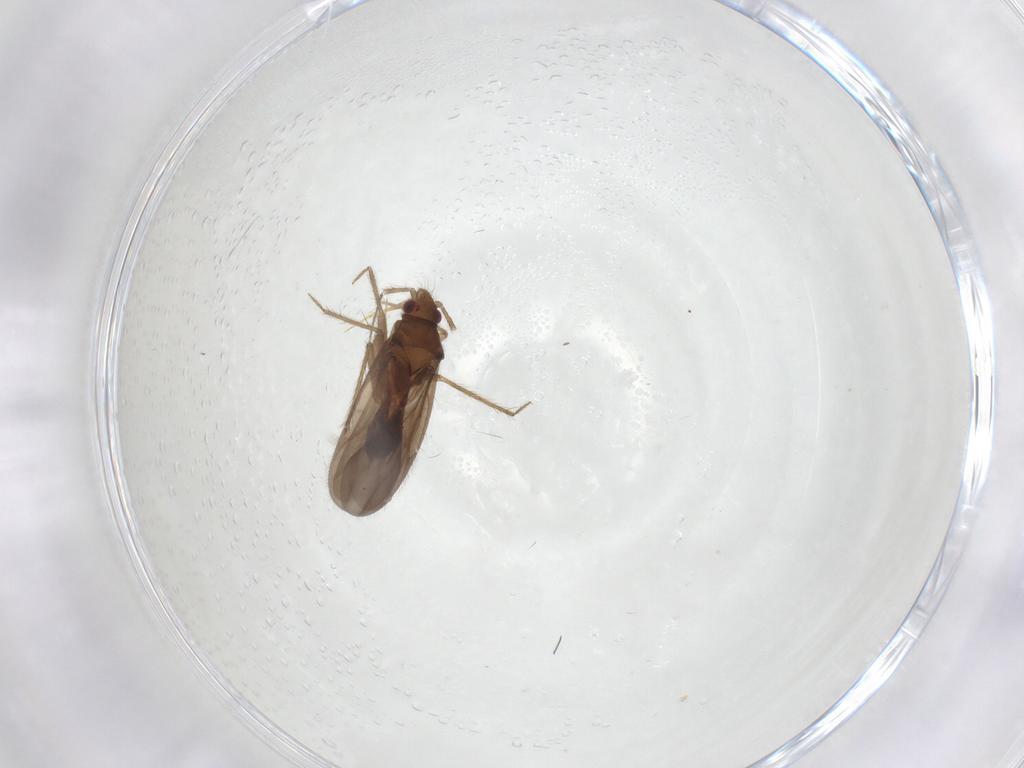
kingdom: Animalia
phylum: Arthropoda
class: Insecta
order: Hemiptera
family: Ceratocombidae
